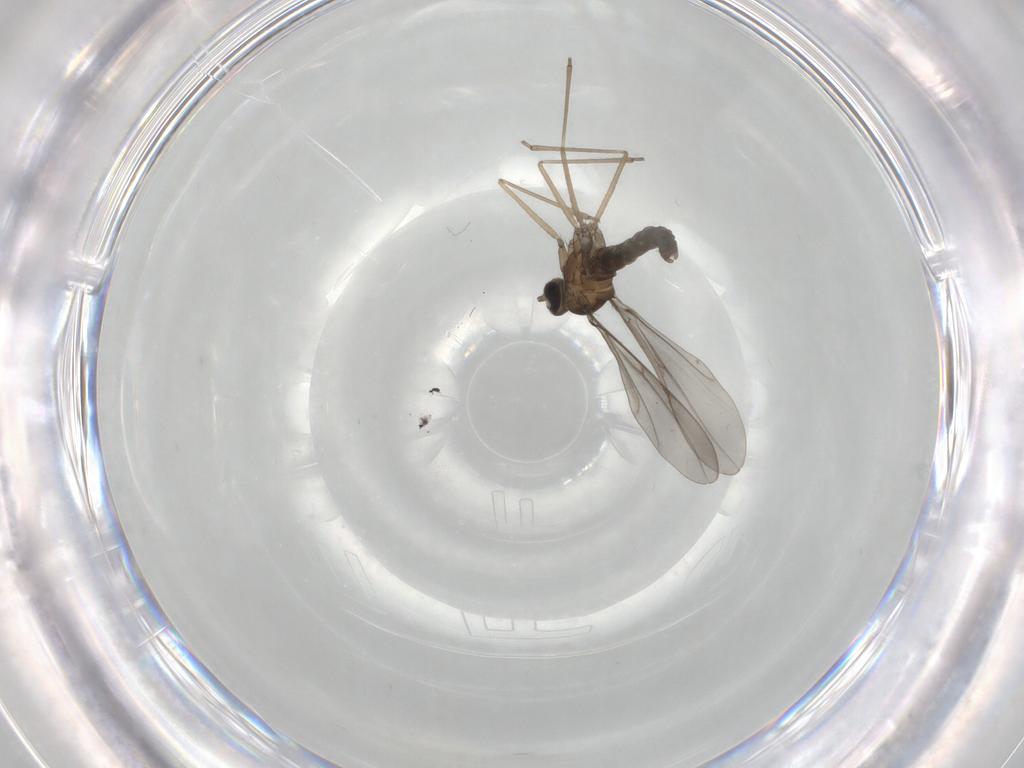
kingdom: Animalia
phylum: Arthropoda
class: Insecta
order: Diptera
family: Phoridae
